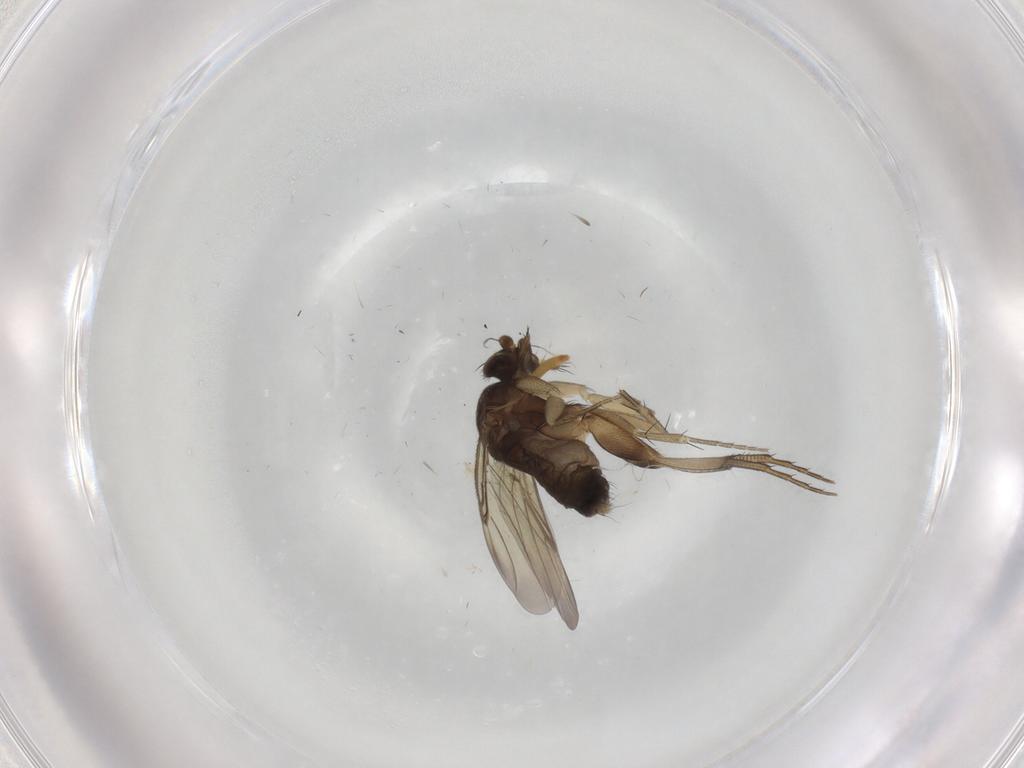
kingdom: Animalia
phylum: Arthropoda
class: Insecta
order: Diptera
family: Phoridae
